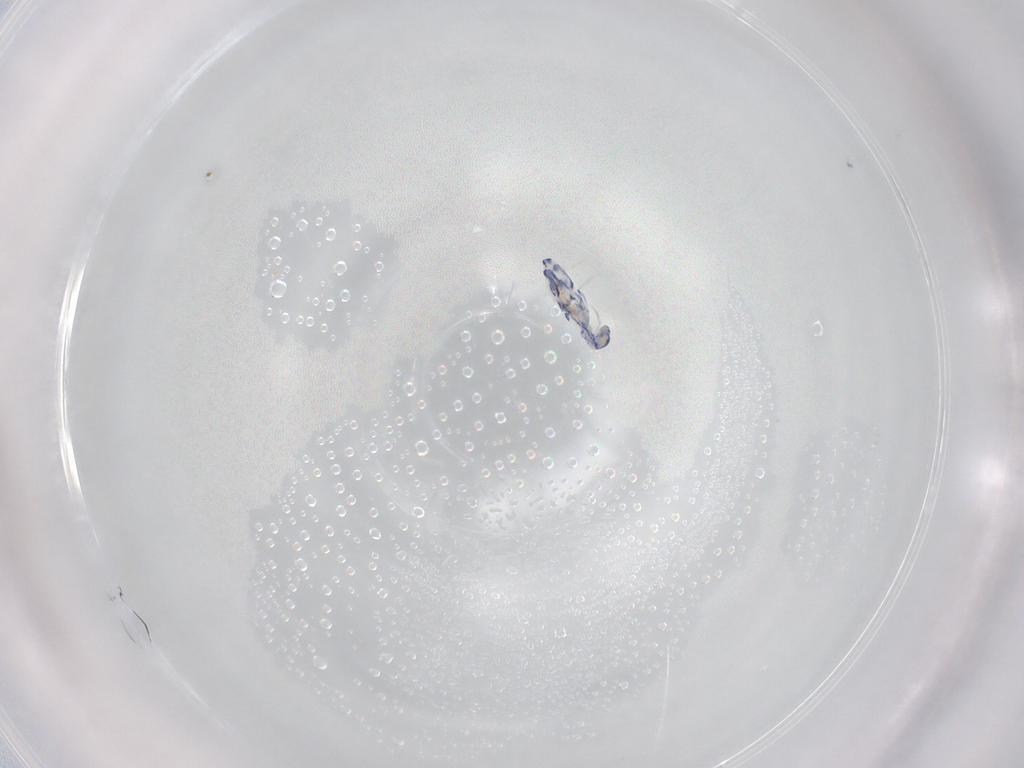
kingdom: Animalia
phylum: Arthropoda
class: Collembola
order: Entomobryomorpha
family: Entomobryidae
